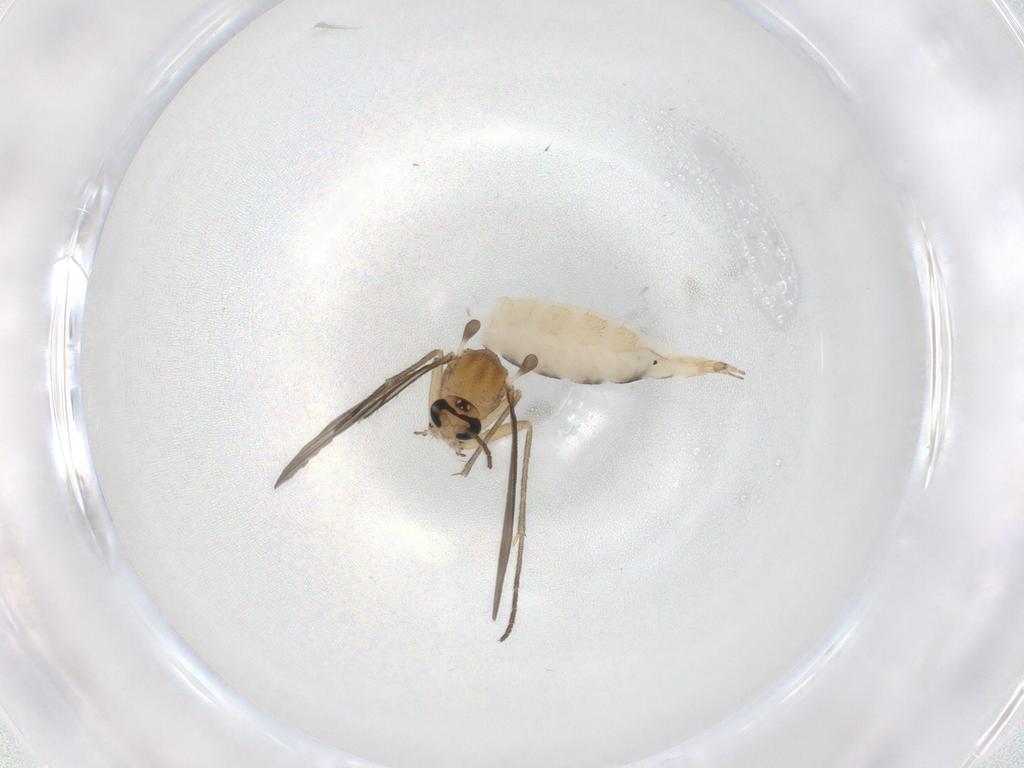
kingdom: Animalia
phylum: Arthropoda
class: Insecta
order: Diptera
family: Sciaridae
